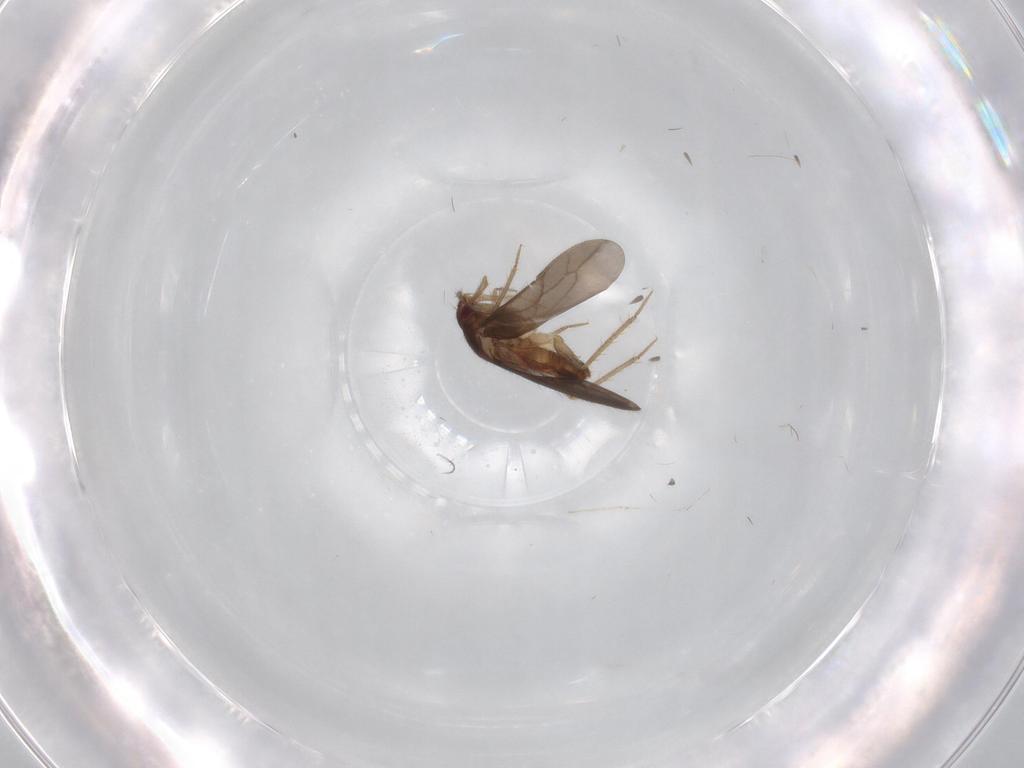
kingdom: Animalia
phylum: Arthropoda
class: Insecta
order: Hemiptera
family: Ceratocombidae
